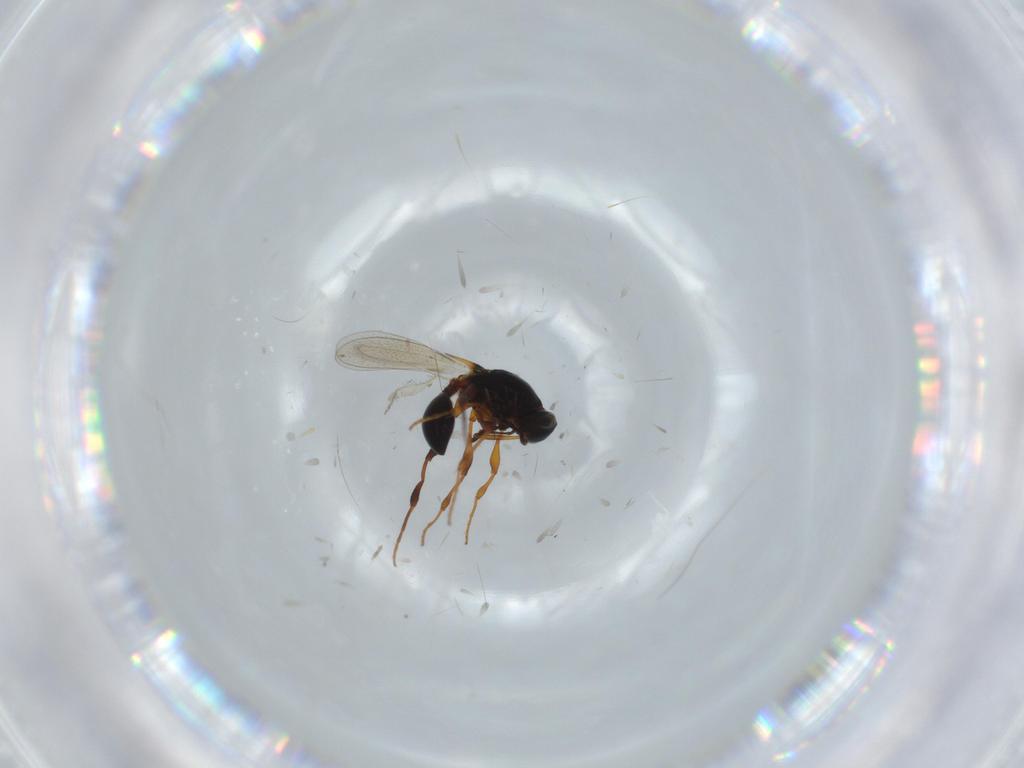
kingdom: Animalia
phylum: Arthropoda
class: Insecta
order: Hymenoptera
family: Platygastridae
